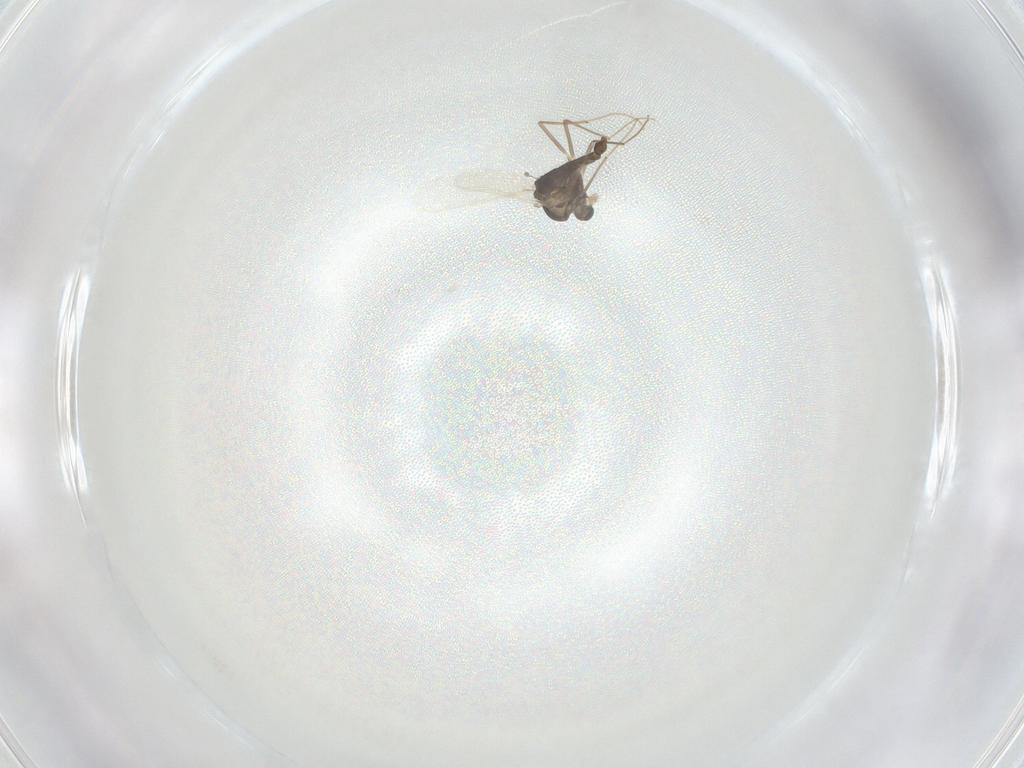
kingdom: Animalia
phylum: Arthropoda
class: Insecta
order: Diptera
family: Chironomidae
